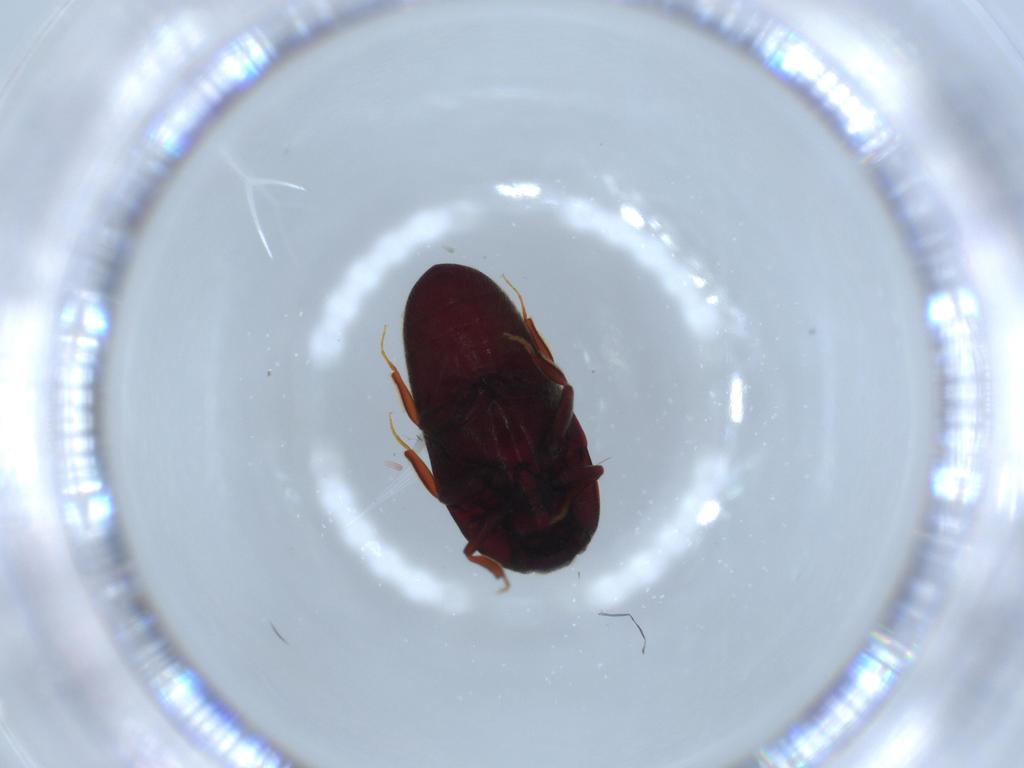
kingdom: Animalia
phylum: Arthropoda
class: Insecta
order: Coleoptera
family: Throscidae
